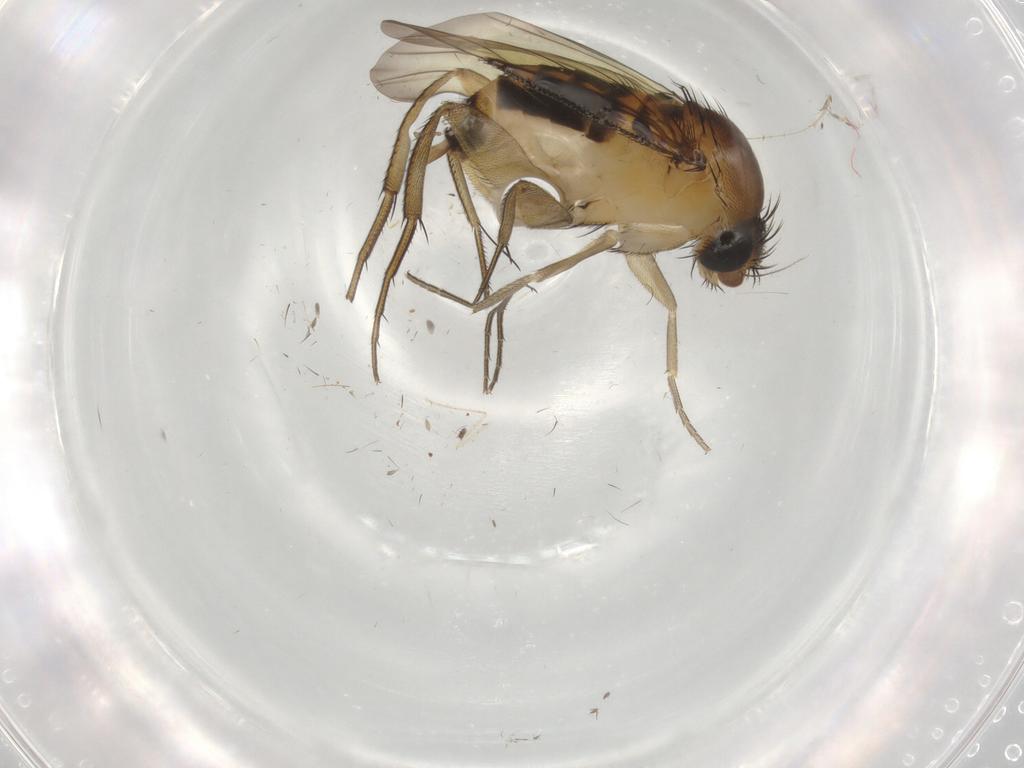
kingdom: Animalia
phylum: Arthropoda
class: Insecta
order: Diptera
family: Phoridae
